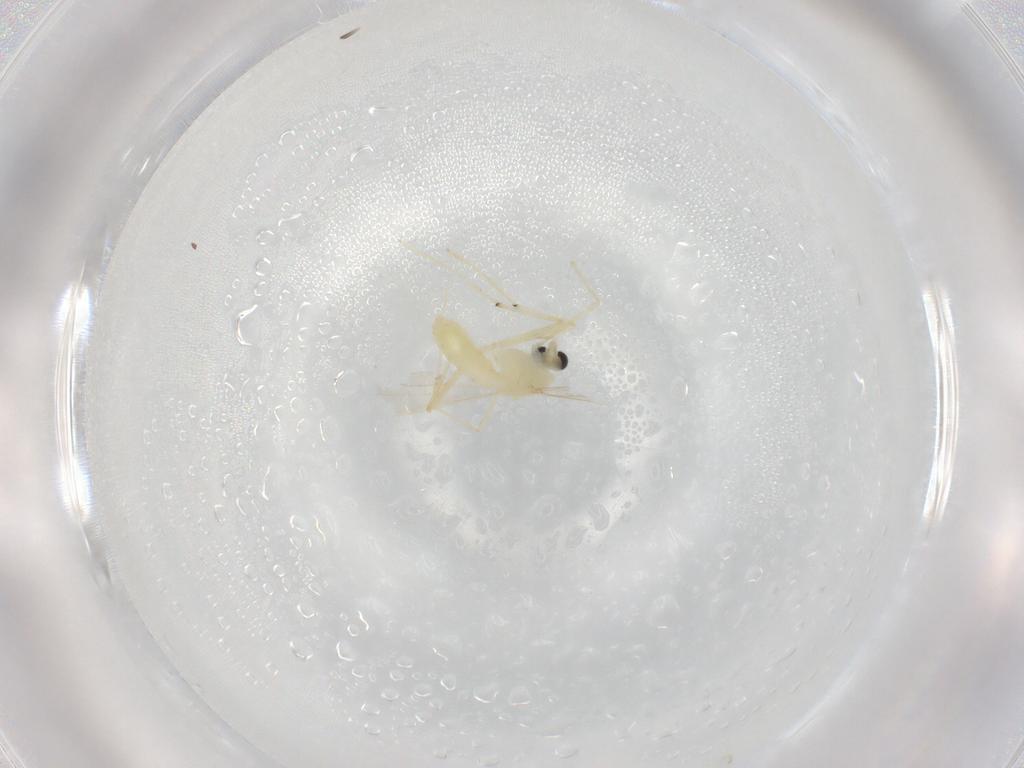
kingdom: Animalia
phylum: Arthropoda
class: Insecta
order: Diptera
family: Chironomidae
